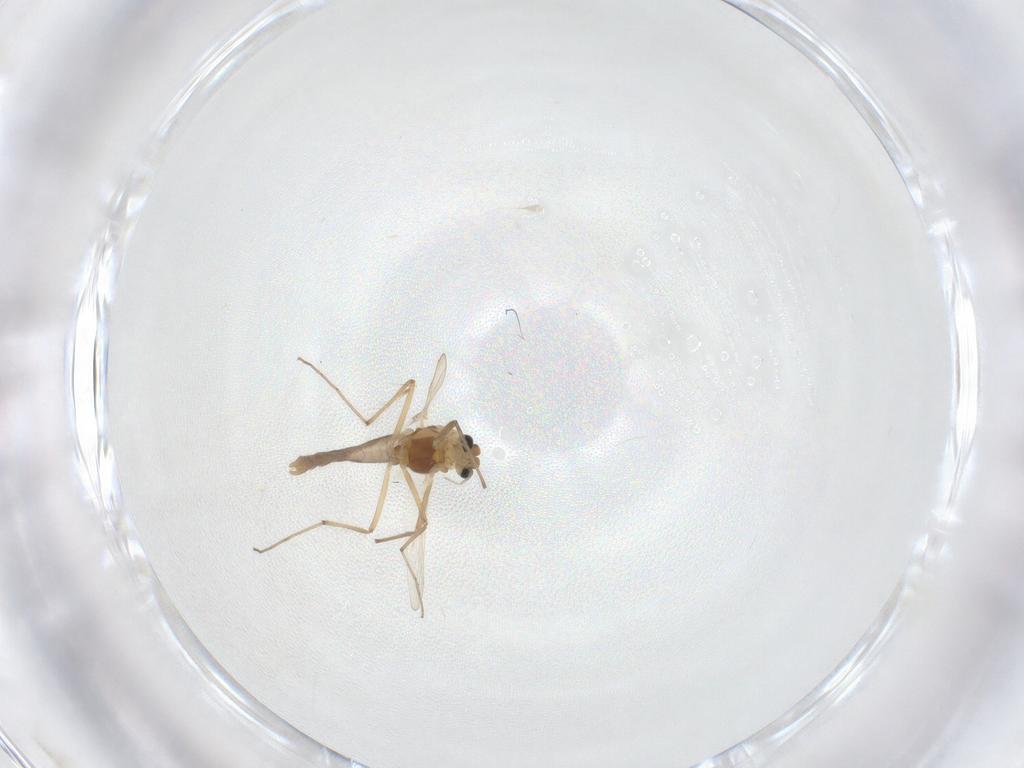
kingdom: Animalia
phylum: Arthropoda
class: Insecta
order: Diptera
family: Chironomidae
